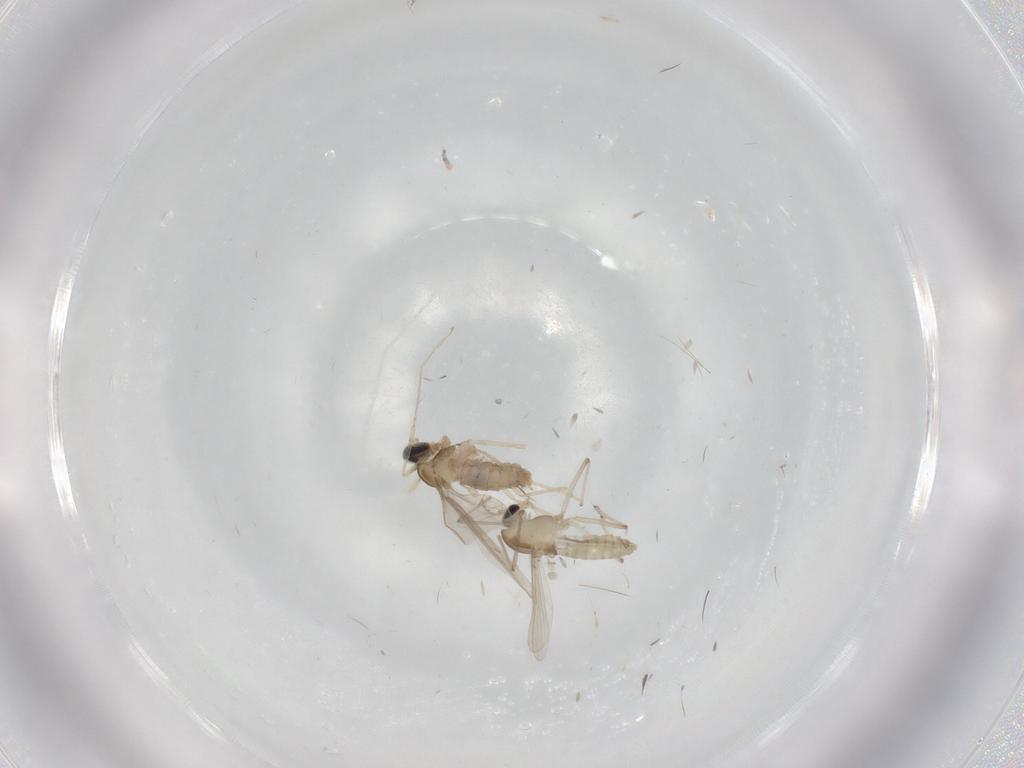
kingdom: Animalia
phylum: Arthropoda
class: Insecta
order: Diptera
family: Cecidomyiidae
